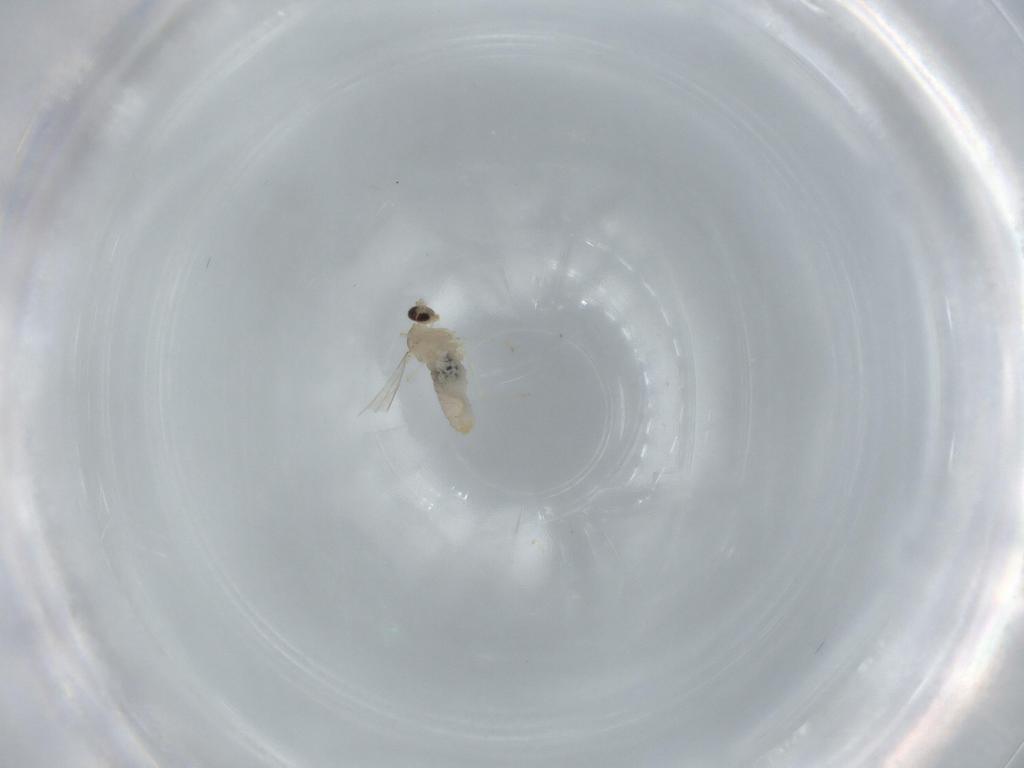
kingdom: Animalia
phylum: Arthropoda
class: Insecta
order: Diptera
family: Cecidomyiidae
